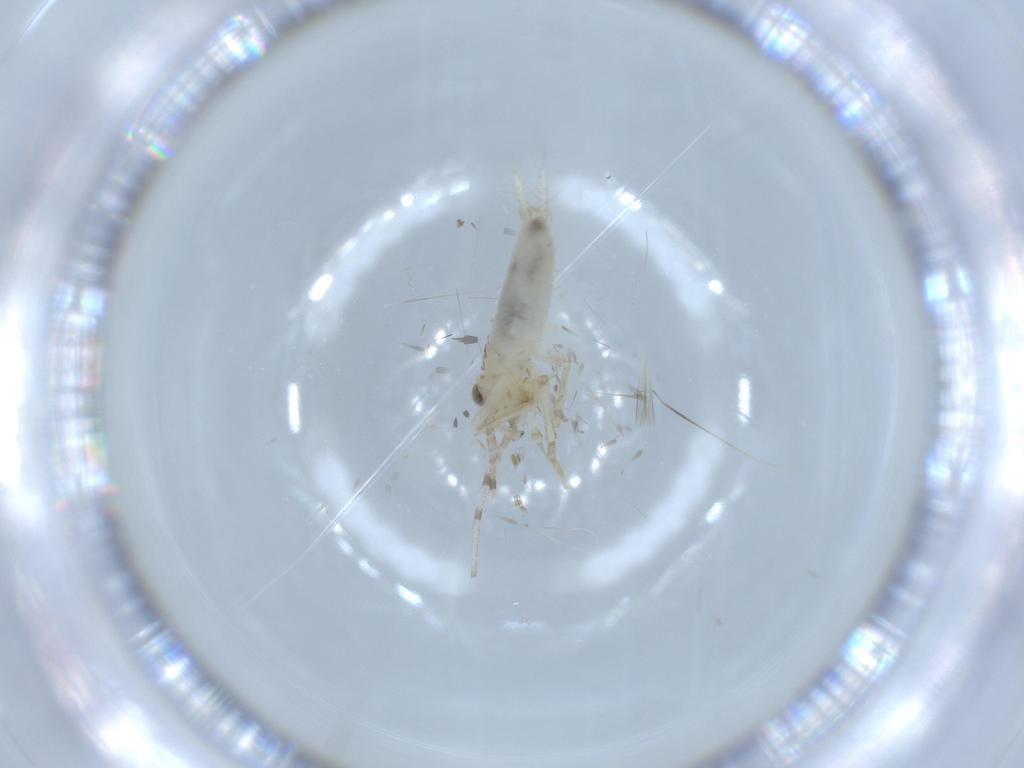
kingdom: Animalia
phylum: Arthropoda
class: Insecta
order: Orthoptera
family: Trigonidiidae
